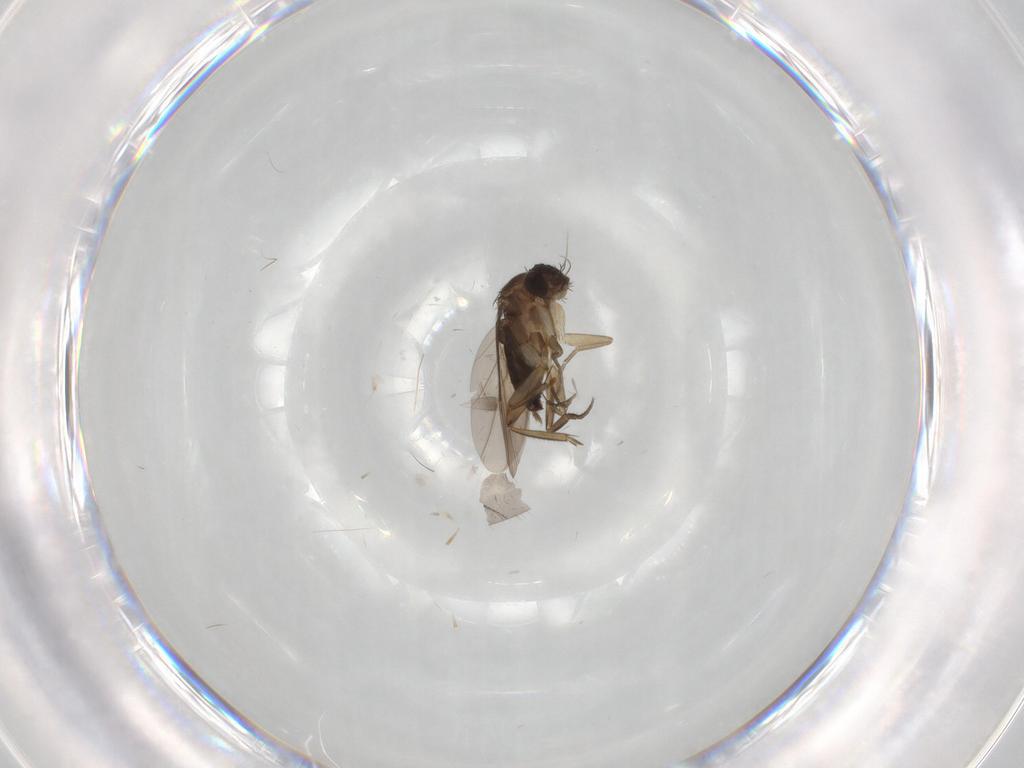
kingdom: Animalia
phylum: Arthropoda
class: Insecta
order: Diptera
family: Phoridae
